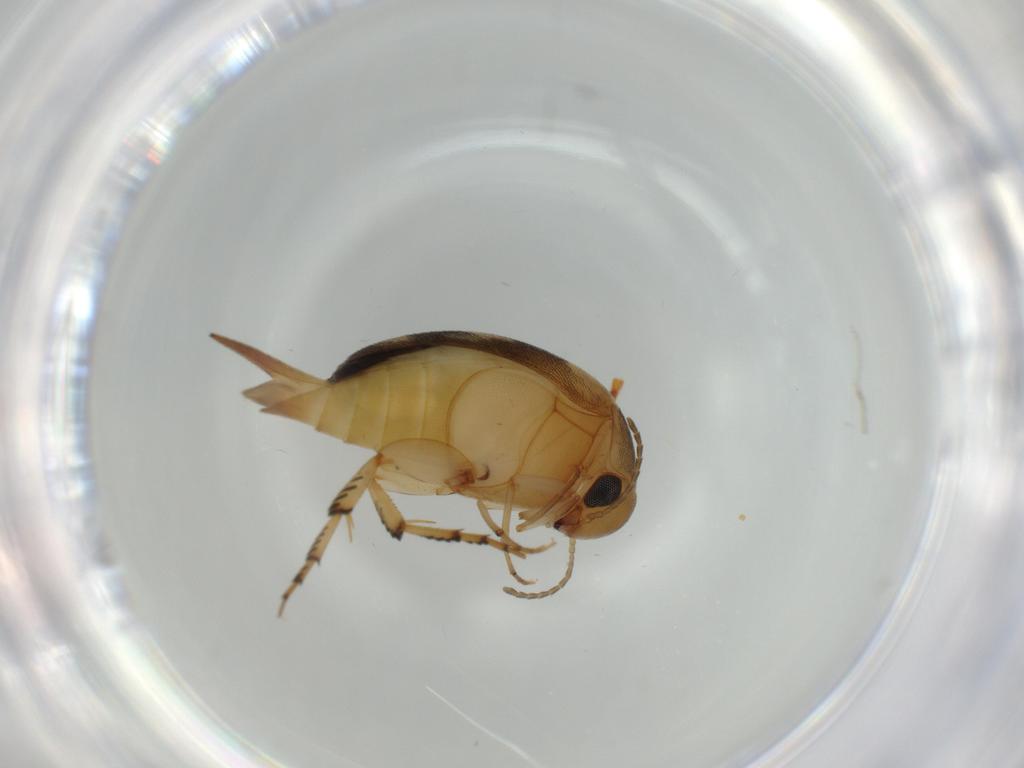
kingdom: Animalia
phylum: Arthropoda
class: Insecta
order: Coleoptera
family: Eucnemidae
